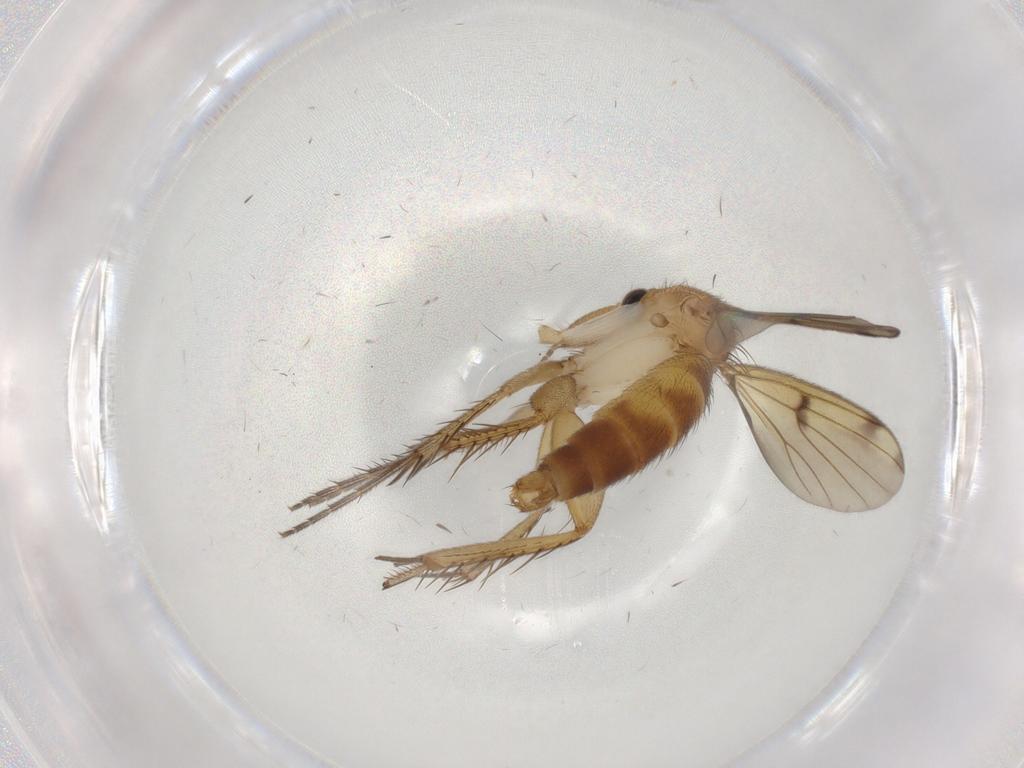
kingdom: Animalia
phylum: Arthropoda
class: Insecta
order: Diptera
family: Phoridae
